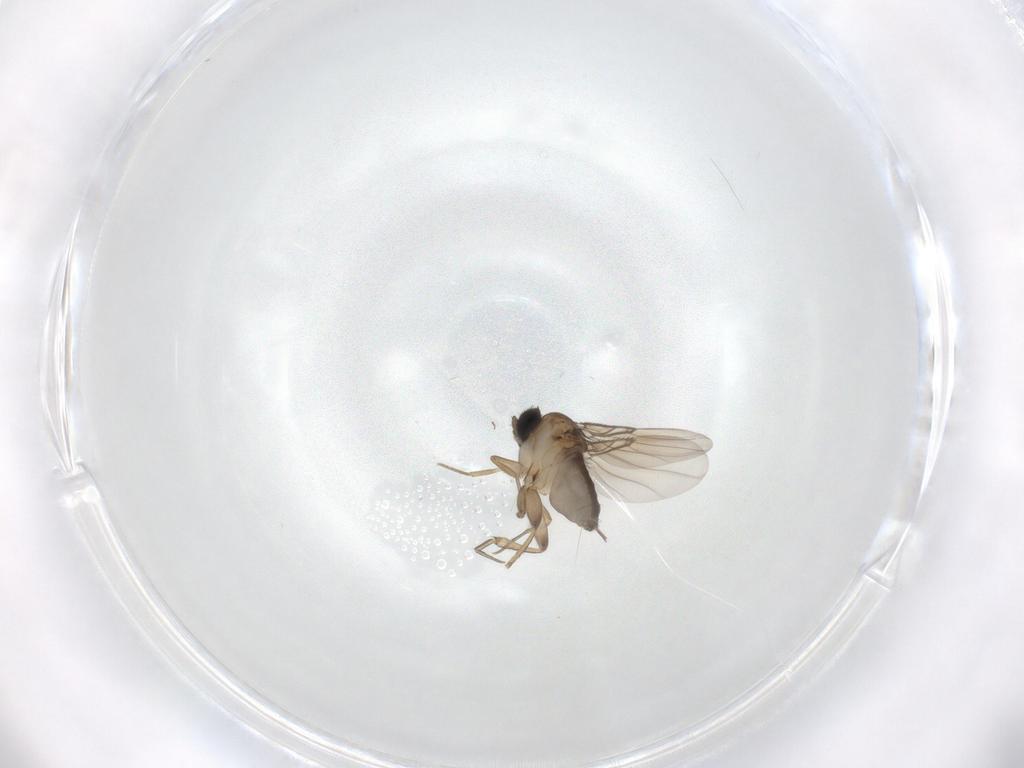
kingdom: Animalia
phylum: Arthropoda
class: Insecta
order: Diptera
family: Phoridae
